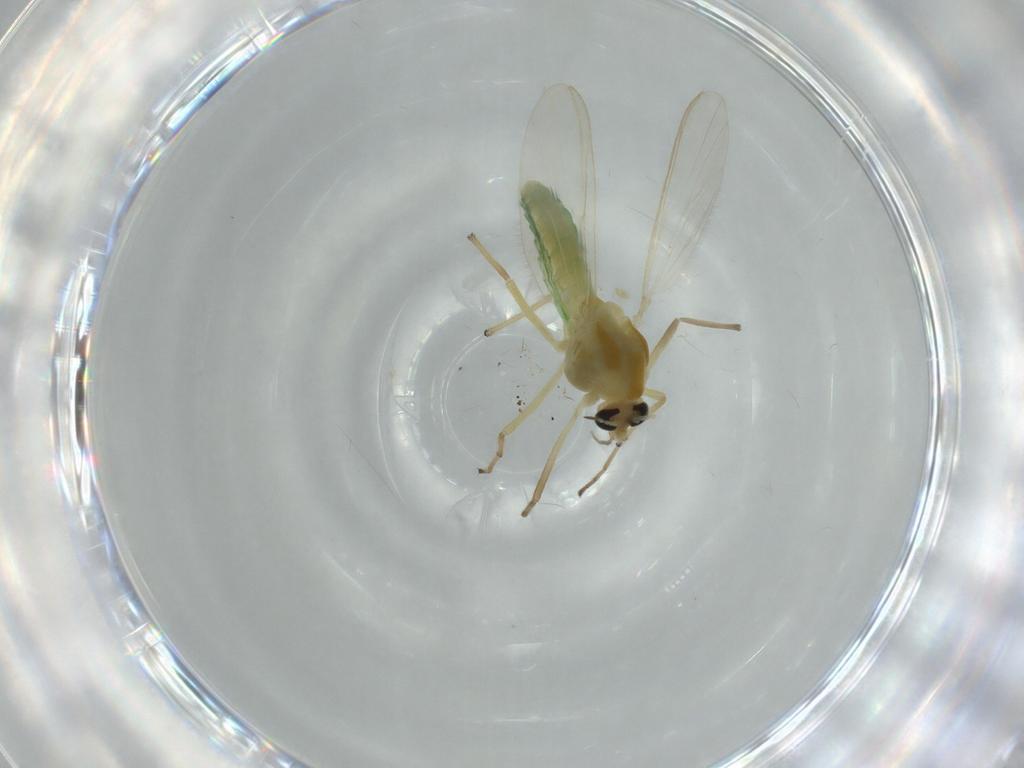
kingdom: Animalia
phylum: Arthropoda
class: Insecta
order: Diptera
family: Chironomidae
